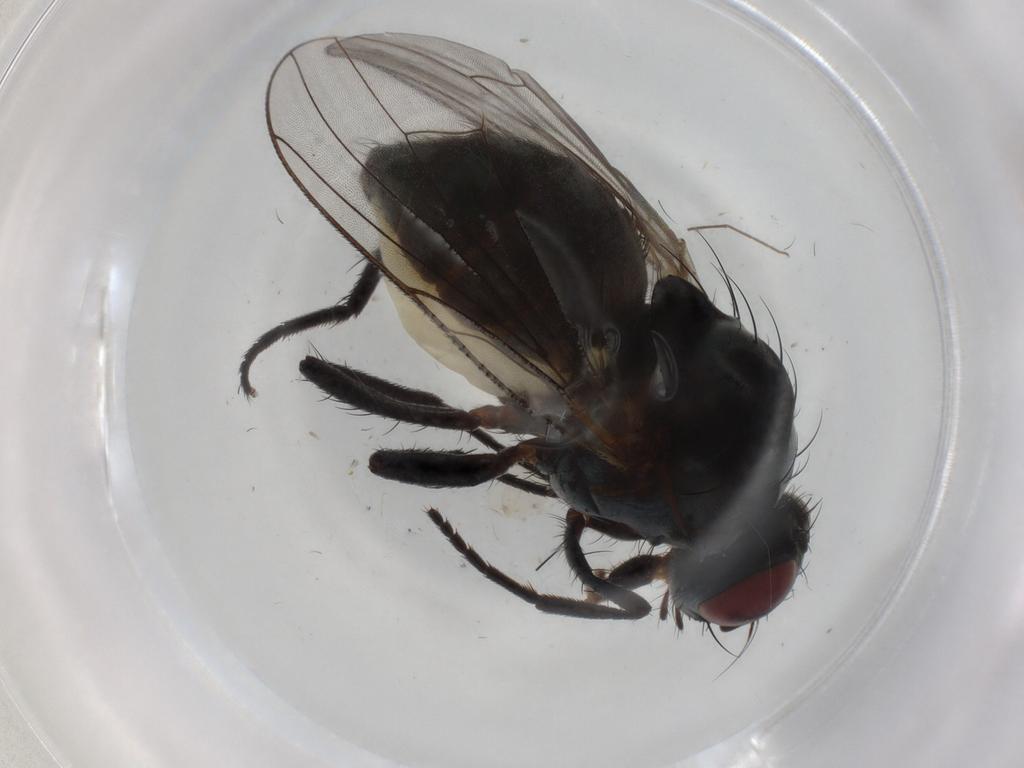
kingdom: Animalia
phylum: Arthropoda
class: Insecta
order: Diptera
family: Anthomyiidae
